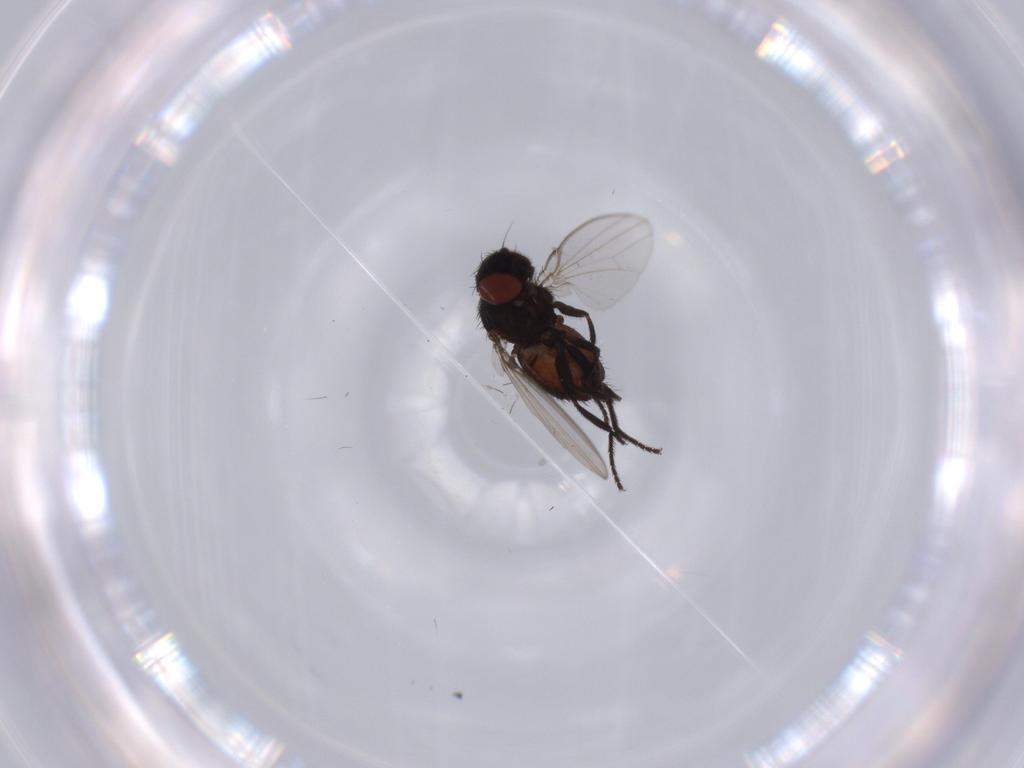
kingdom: Animalia
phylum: Arthropoda
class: Insecta
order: Diptera
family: Milichiidae
